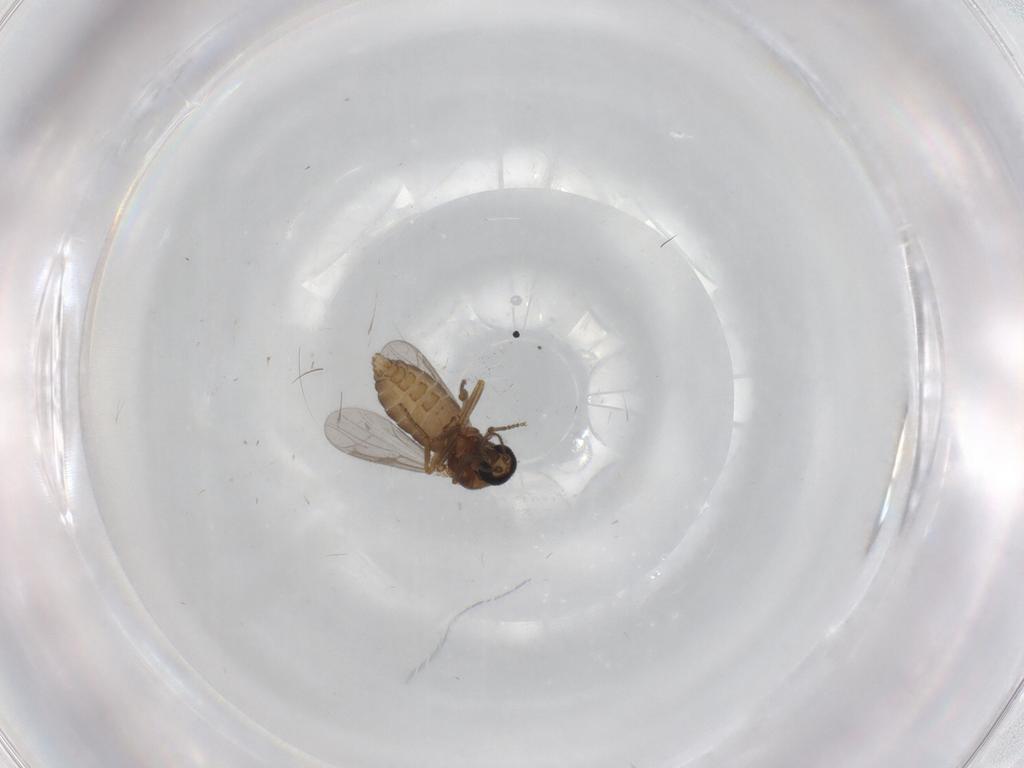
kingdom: Animalia
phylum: Arthropoda
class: Insecta
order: Diptera
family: Ceratopogonidae
